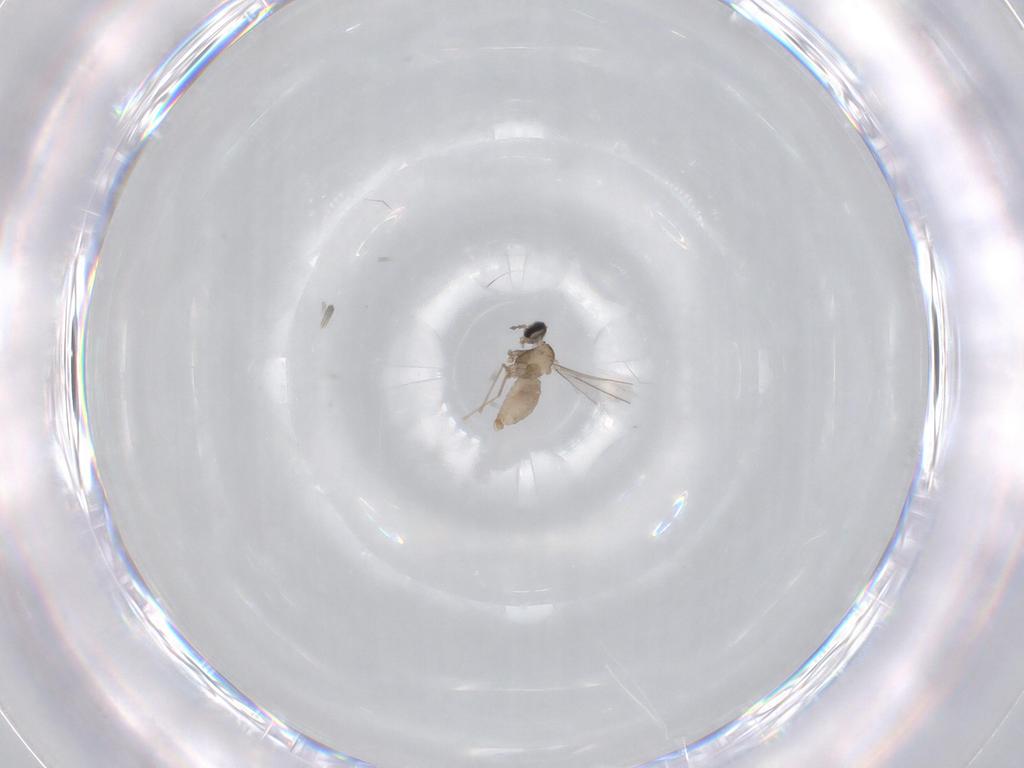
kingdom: Animalia
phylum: Arthropoda
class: Insecta
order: Diptera
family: Cecidomyiidae
